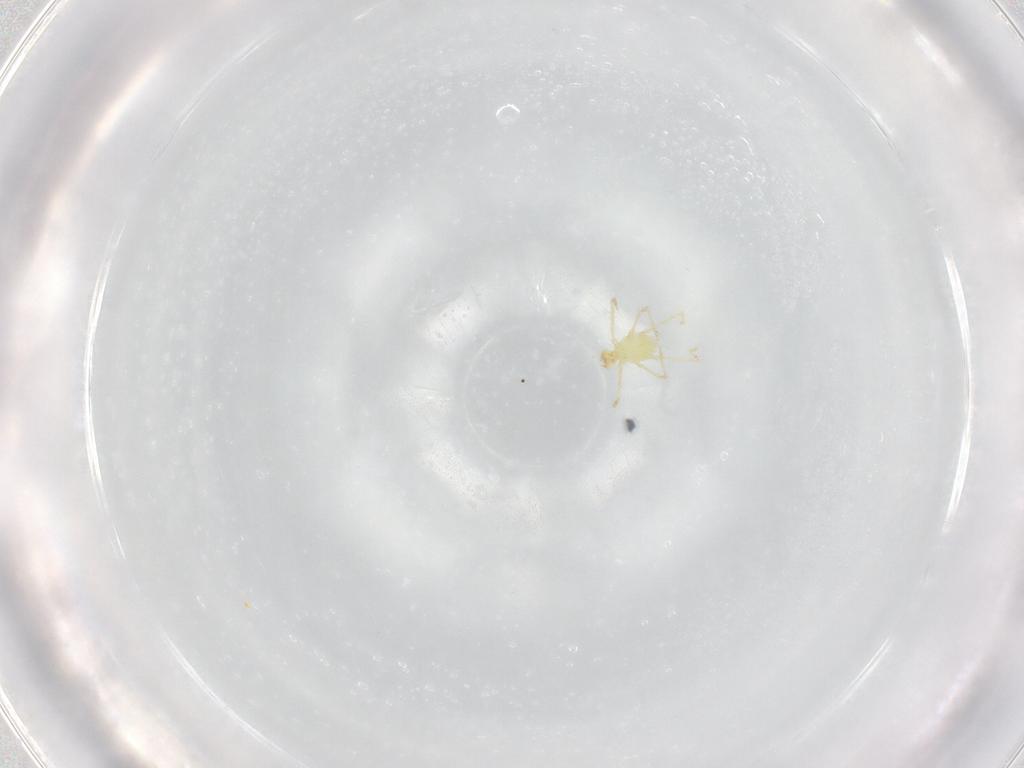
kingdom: Animalia
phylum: Arthropoda
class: Arachnida
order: Trombidiformes
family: Erythraeidae
